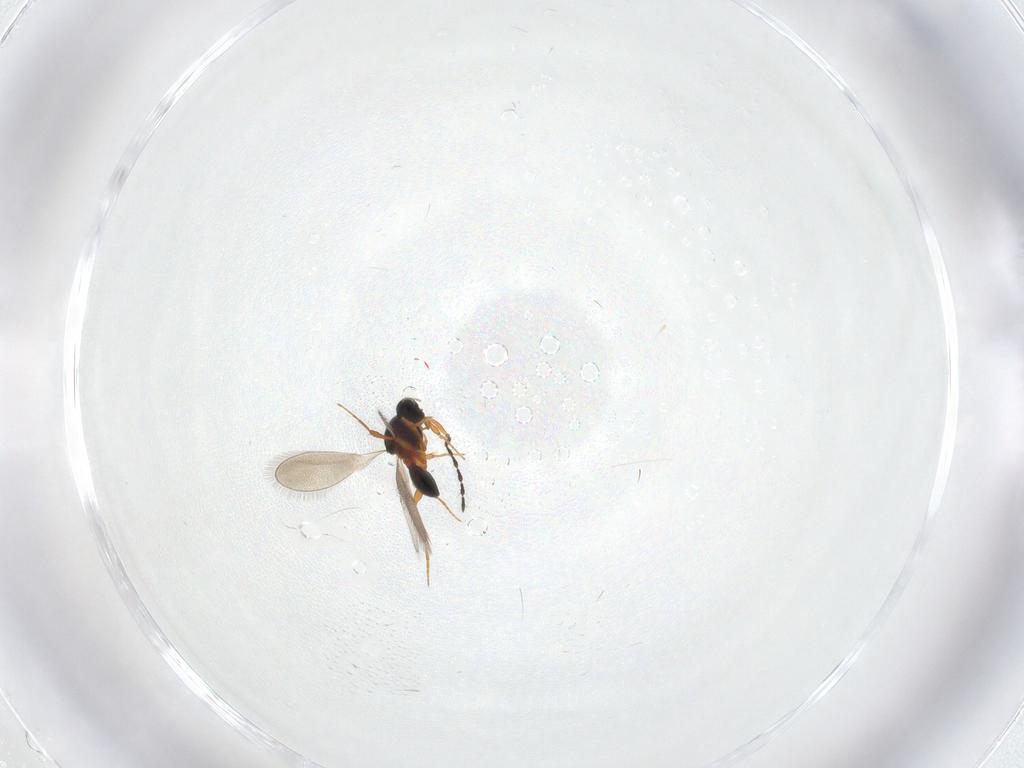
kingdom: Animalia
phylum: Arthropoda
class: Insecta
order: Hymenoptera
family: Platygastridae
